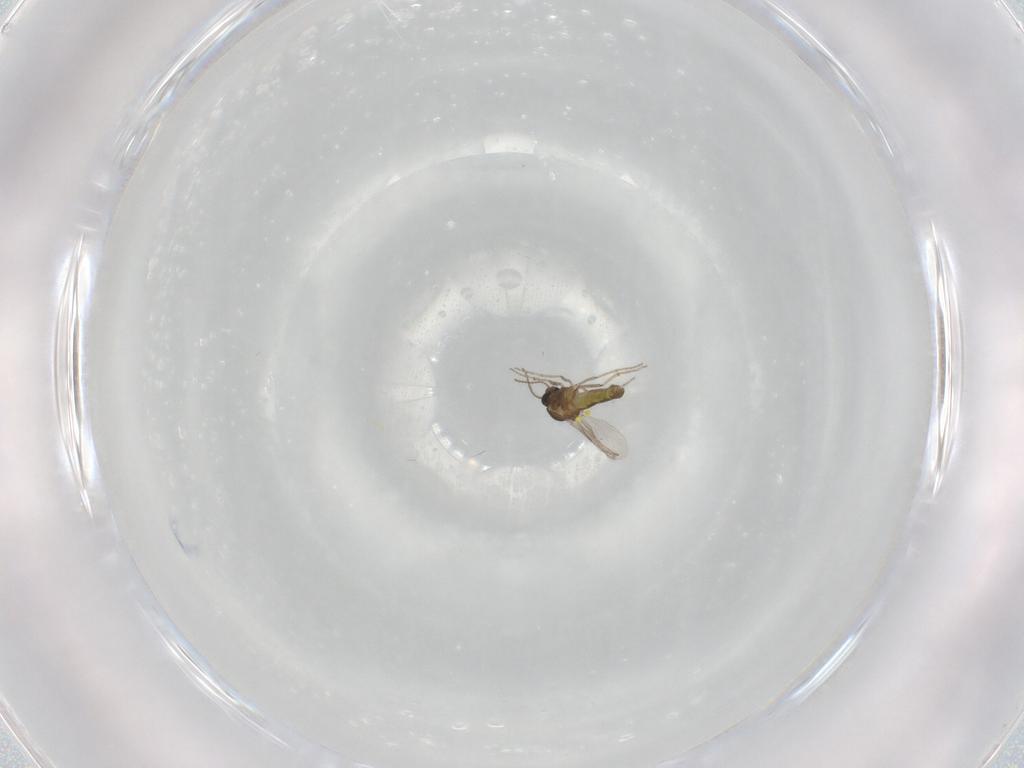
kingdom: Animalia
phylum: Arthropoda
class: Insecta
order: Diptera
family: Ceratopogonidae
